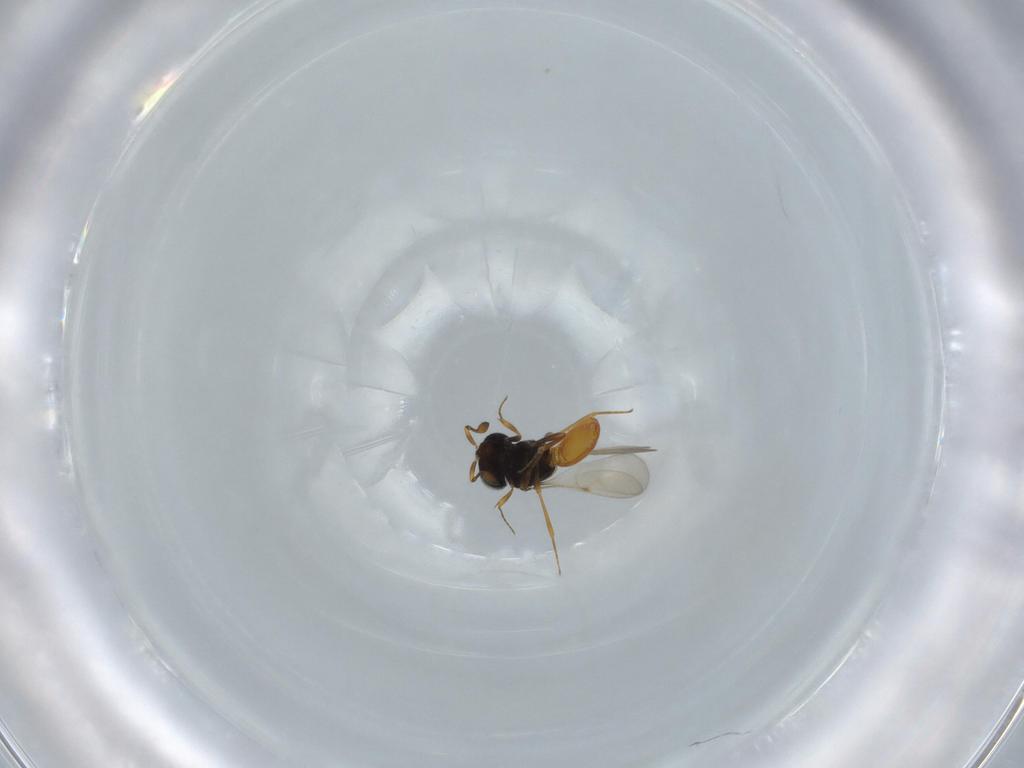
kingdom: Animalia
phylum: Arthropoda
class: Insecta
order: Hymenoptera
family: Scelionidae
